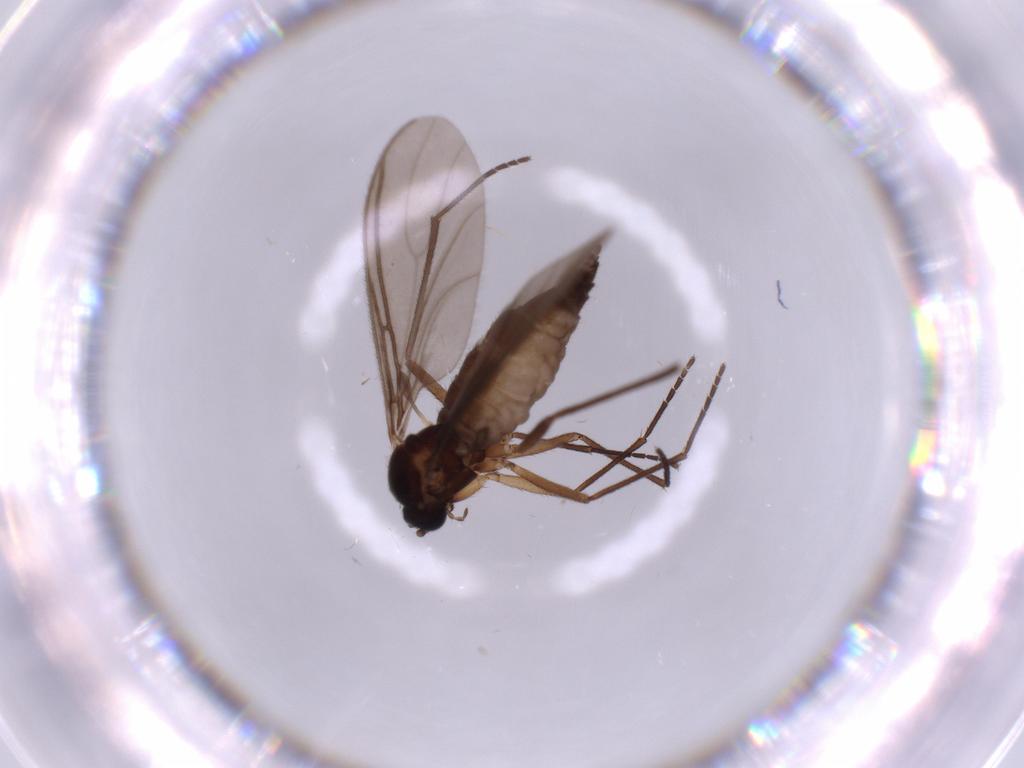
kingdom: Animalia
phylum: Arthropoda
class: Insecta
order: Diptera
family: Sciaridae
